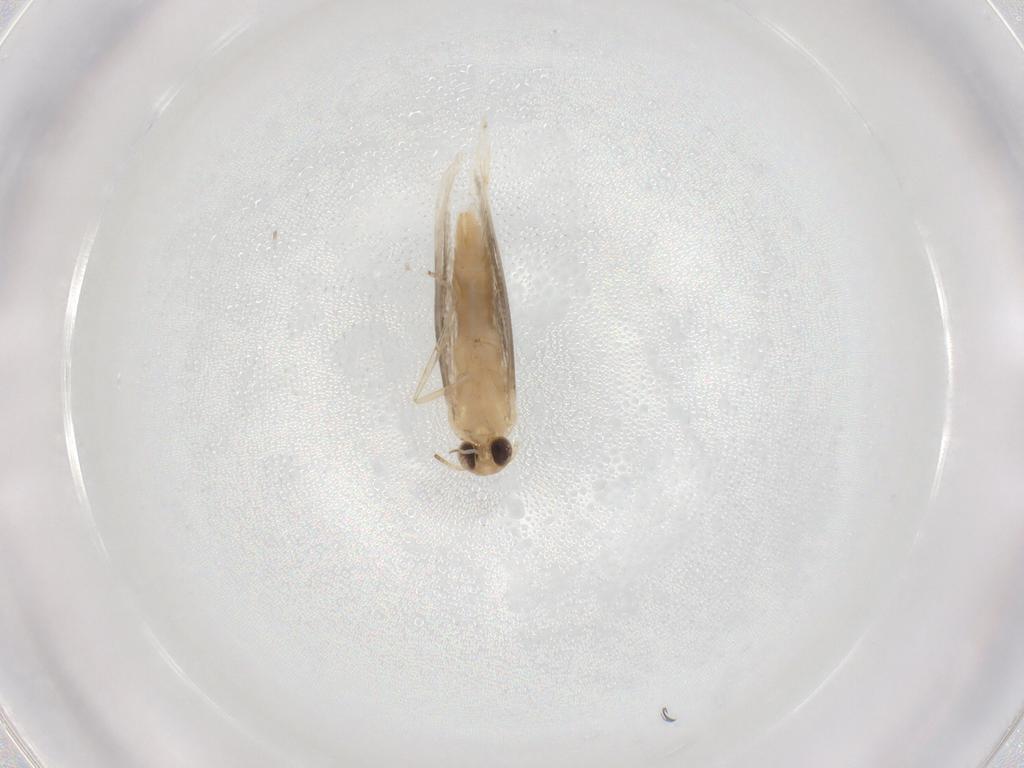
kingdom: Animalia
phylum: Arthropoda
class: Insecta
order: Lepidoptera
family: Glyphipterigidae
